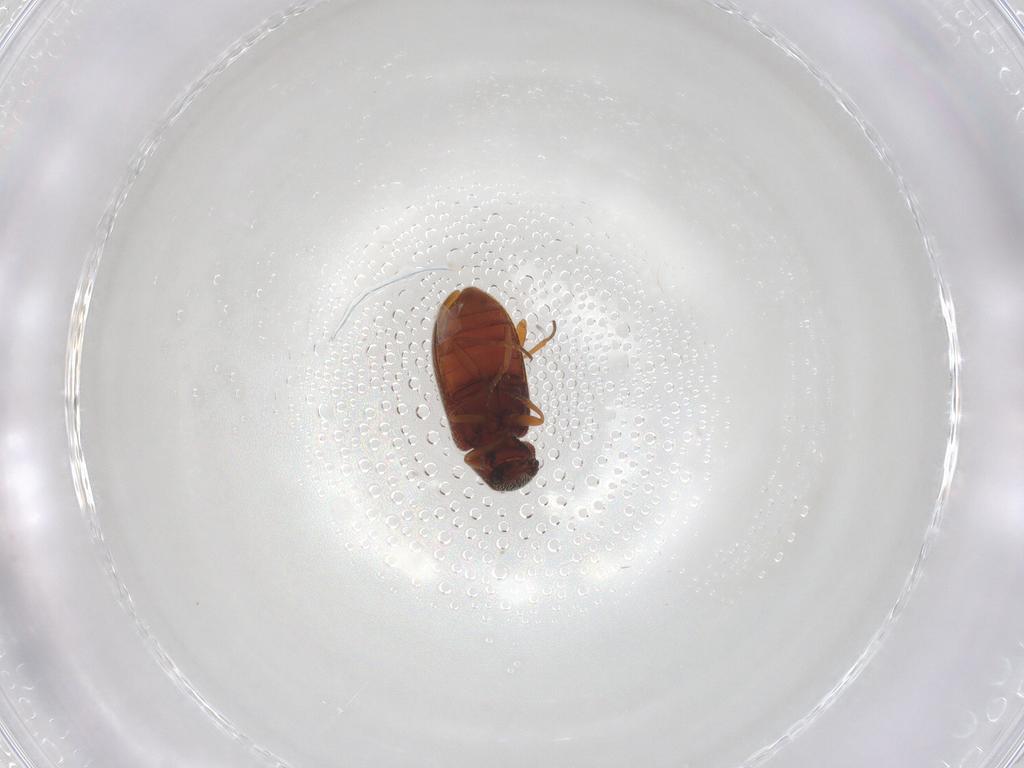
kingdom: Animalia
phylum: Arthropoda
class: Insecta
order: Coleoptera
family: Rhadalidae
